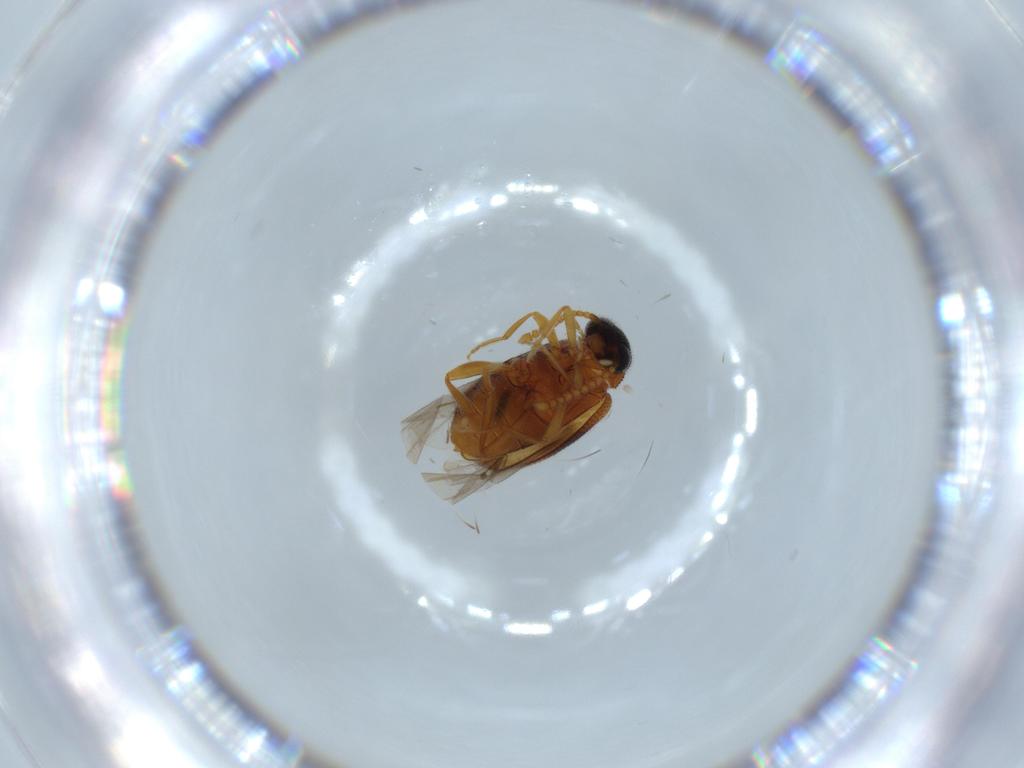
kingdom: Animalia
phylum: Arthropoda
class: Insecta
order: Coleoptera
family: Aderidae
